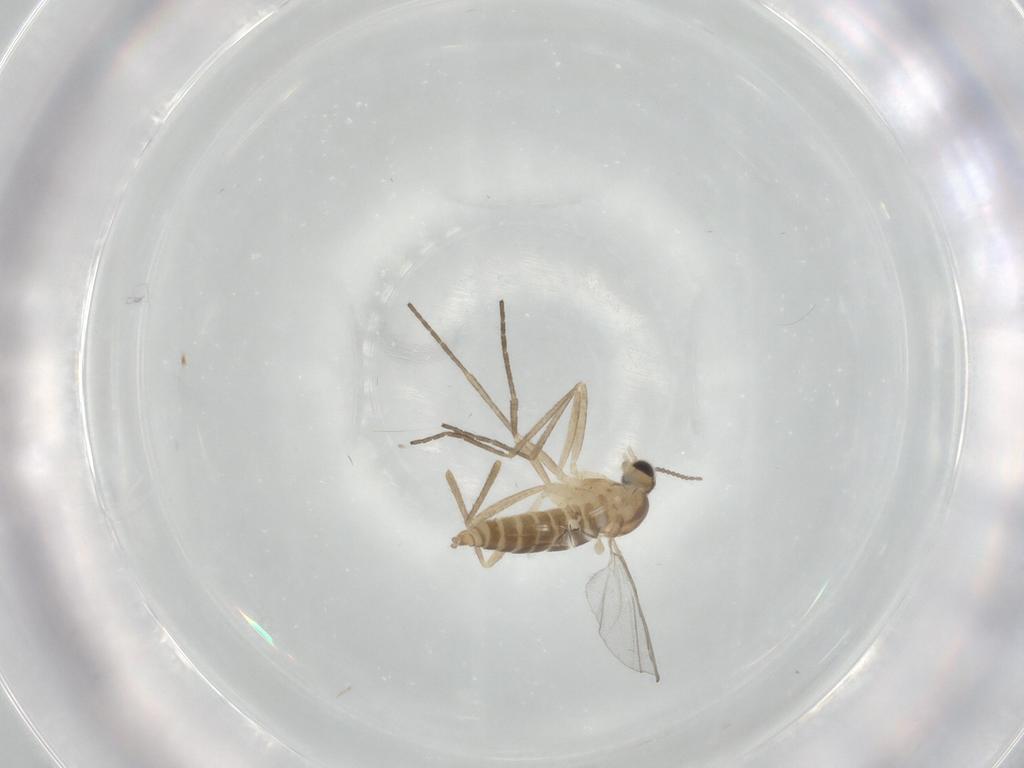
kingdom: Animalia
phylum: Arthropoda
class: Insecta
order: Diptera
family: Cecidomyiidae
